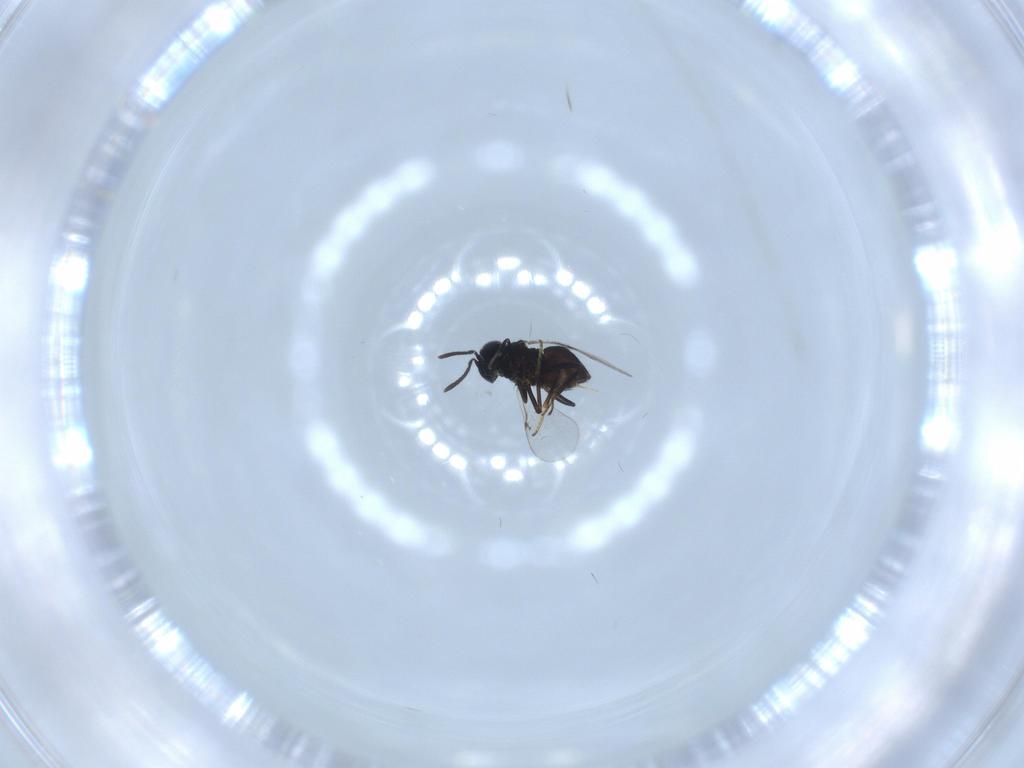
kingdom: Animalia
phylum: Arthropoda
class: Insecta
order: Hymenoptera
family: Encyrtidae
